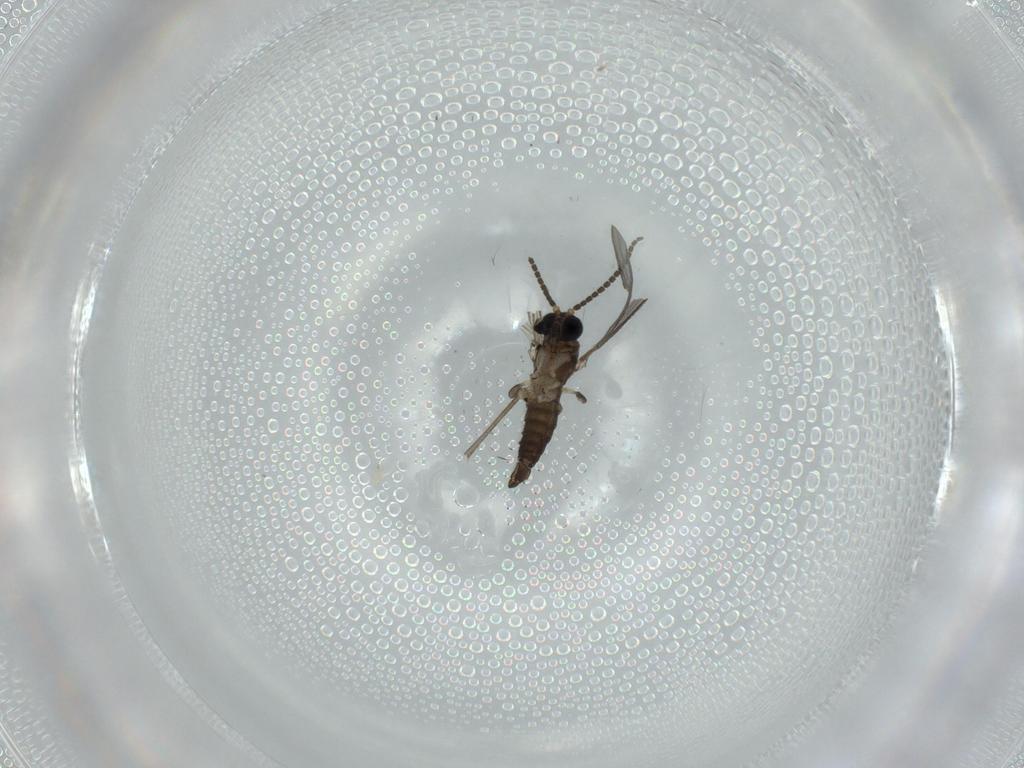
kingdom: Animalia
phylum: Arthropoda
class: Insecta
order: Diptera
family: Sciaridae
